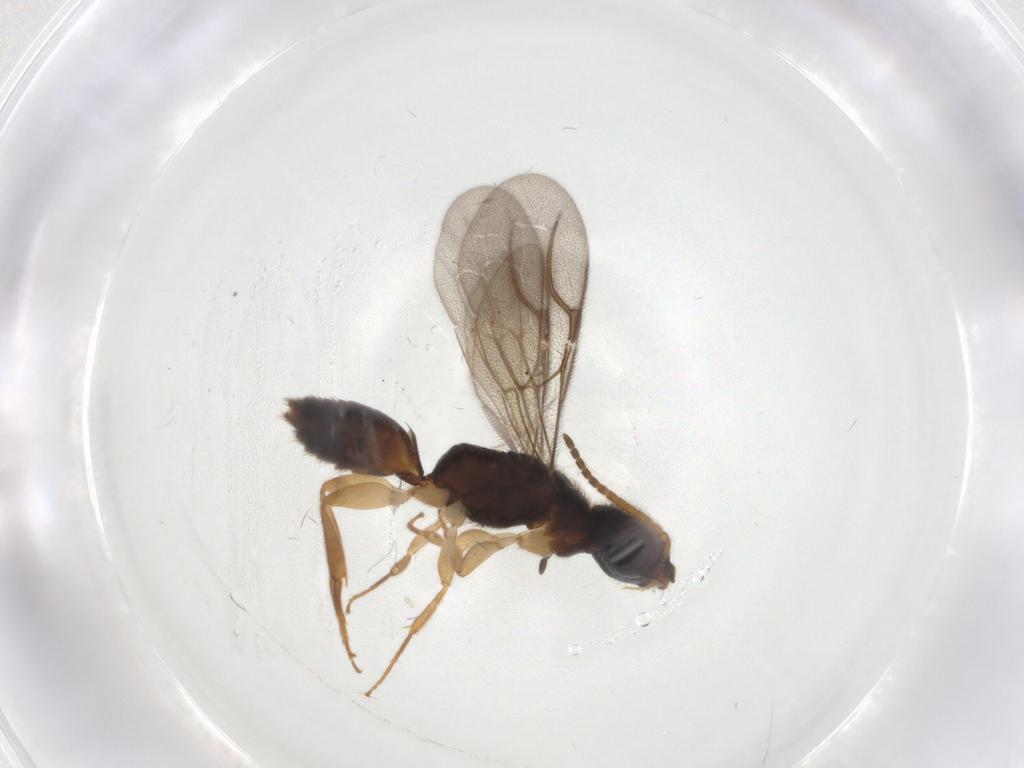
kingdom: Animalia
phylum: Arthropoda
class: Insecta
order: Hymenoptera
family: Bethylidae
